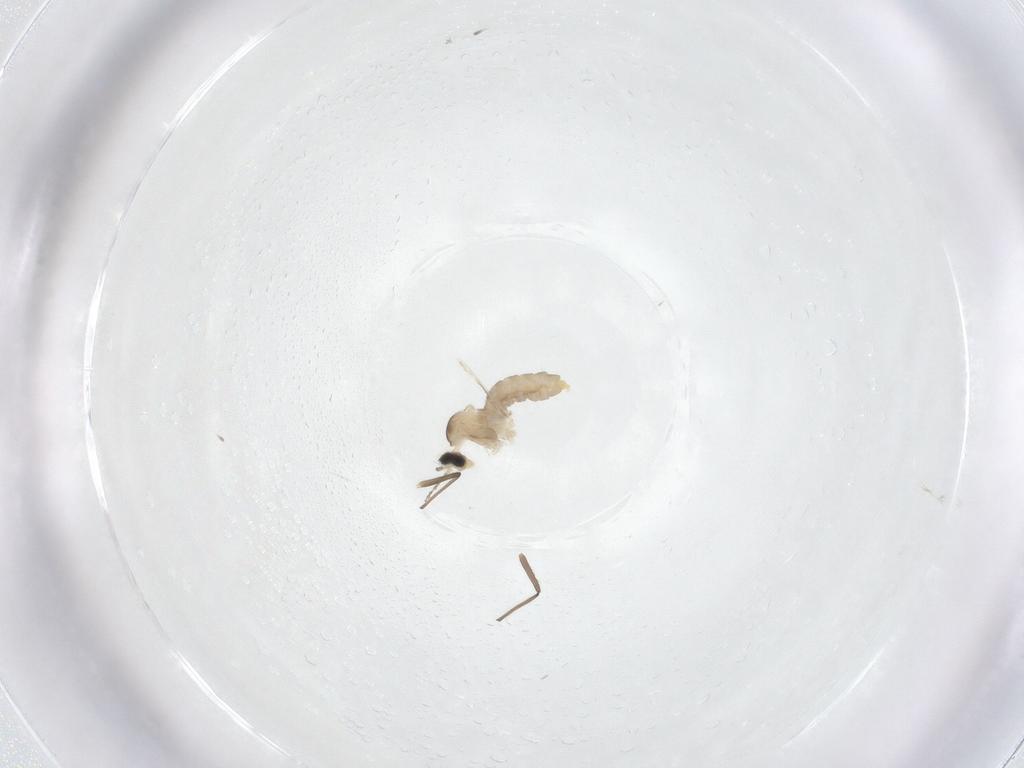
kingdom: Animalia
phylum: Arthropoda
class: Insecta
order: Diptera
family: Cecidomyiidae
